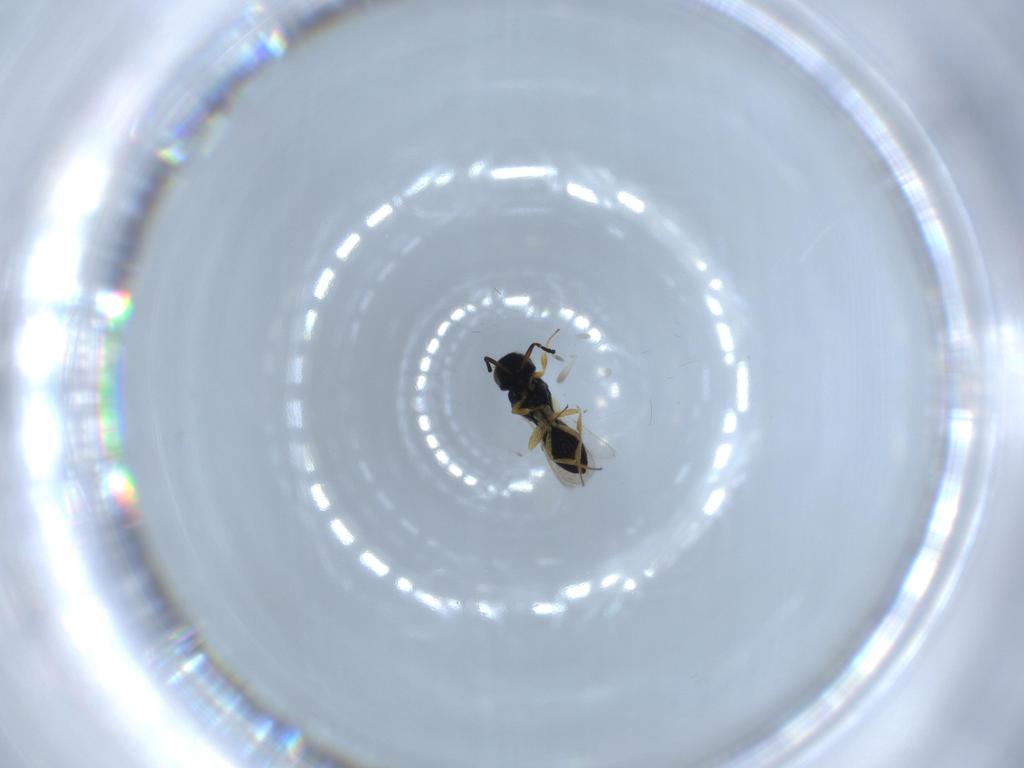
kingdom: Animalia
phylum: Arthropoda
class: Insecta
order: Hymenoptera
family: Scelionidae
